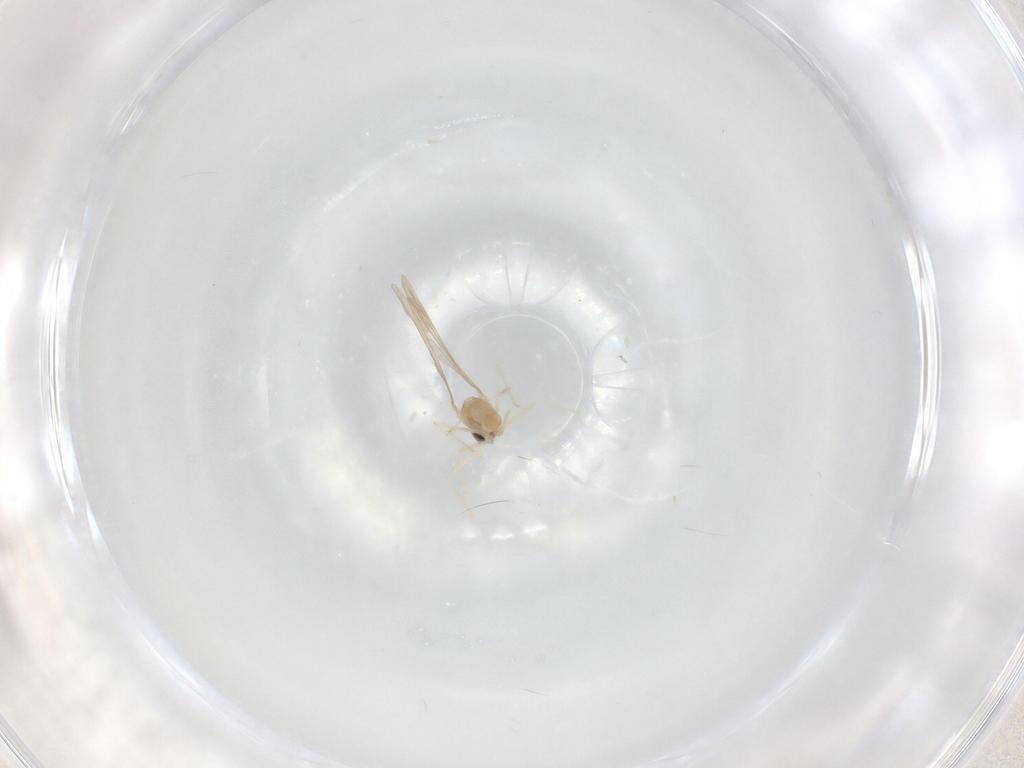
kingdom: Animalia
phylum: Arthropoda
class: Insecta
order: Diptera
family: Cecidomyiidae
